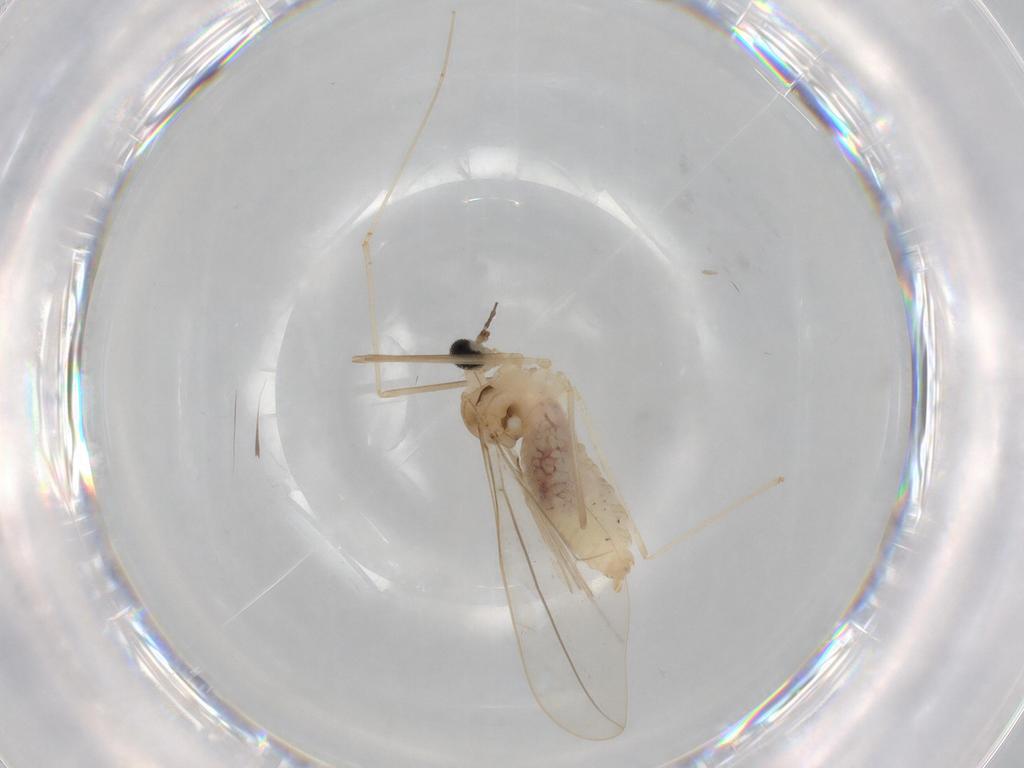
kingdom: Animalia
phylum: Arthropoda
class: Insecta
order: Diptera
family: Cecidomyiidae
